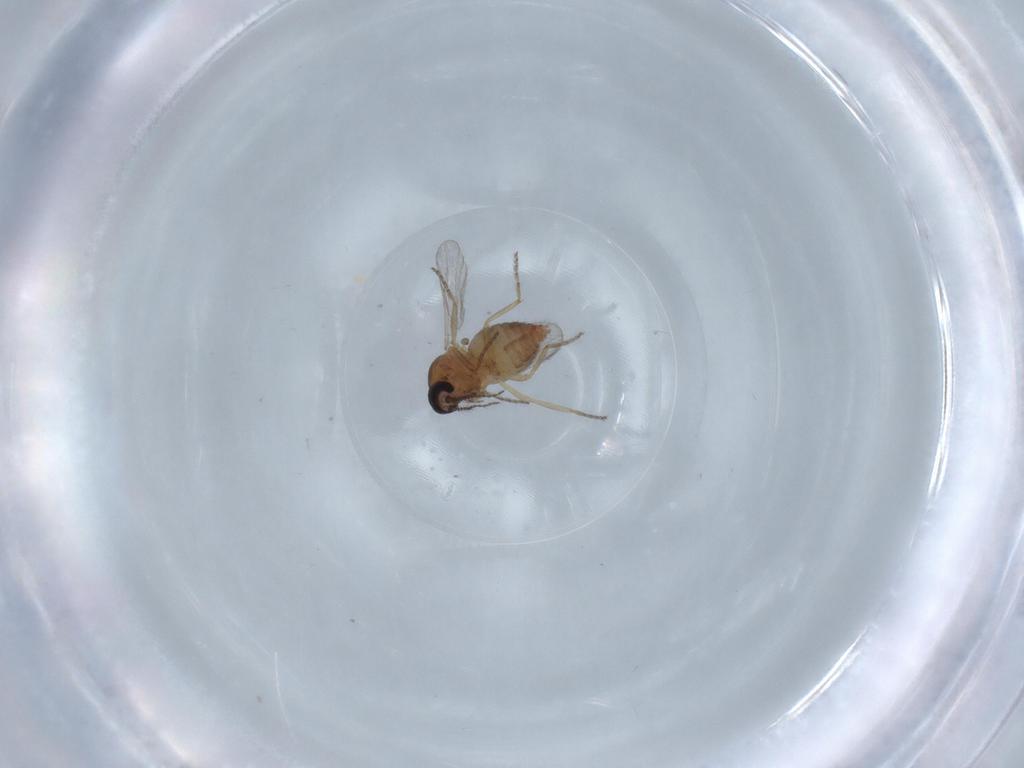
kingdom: Animalia
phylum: Arthropoda
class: Insecta
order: Diptera
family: Ceratopogonidae
